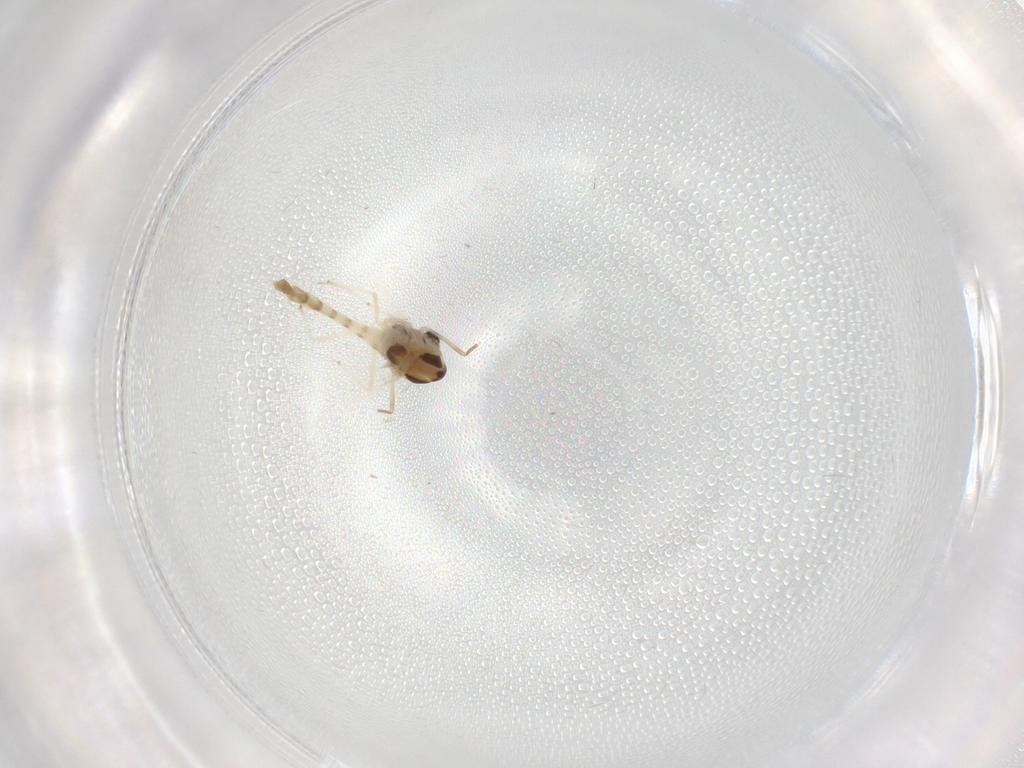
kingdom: Animalia
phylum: Arthropoda
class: Insecta
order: Diptera
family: Chironomidae
